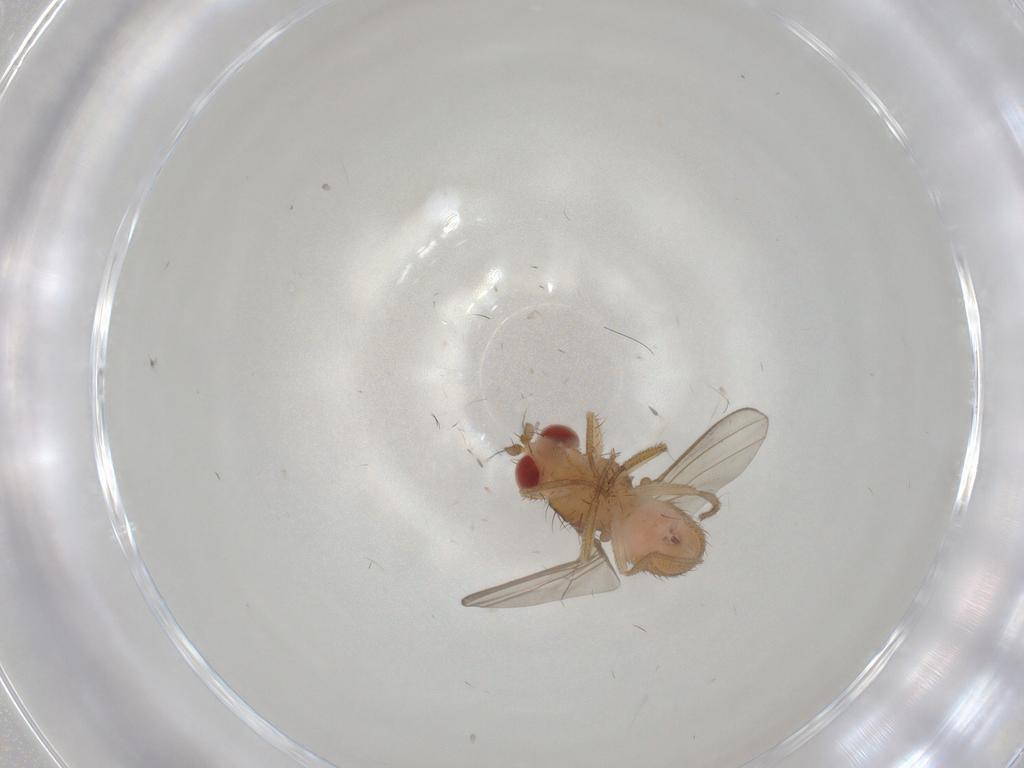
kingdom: Animalia
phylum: Arthropoda
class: Insecta
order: Diptera
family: Drosophilidae
